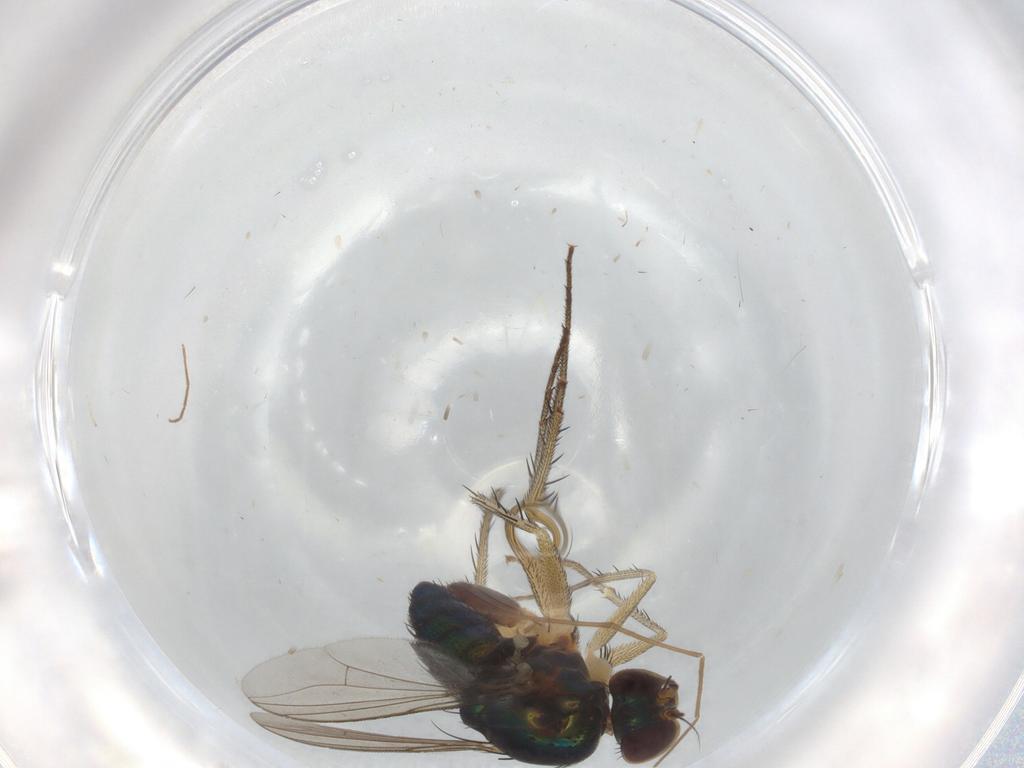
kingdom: Animalia
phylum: Arthropoda
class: Insecta
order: Diptera
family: Dolichopodidae
